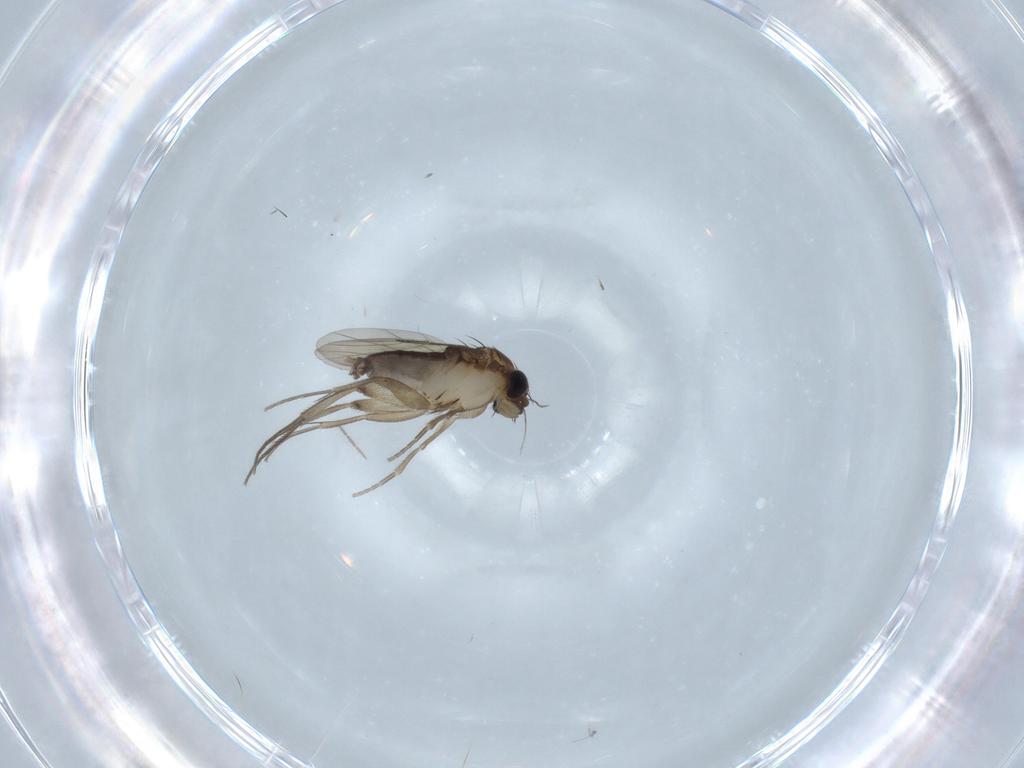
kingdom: Animalia
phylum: Arthropoda
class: Insecta
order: Diptera
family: Phoridae
